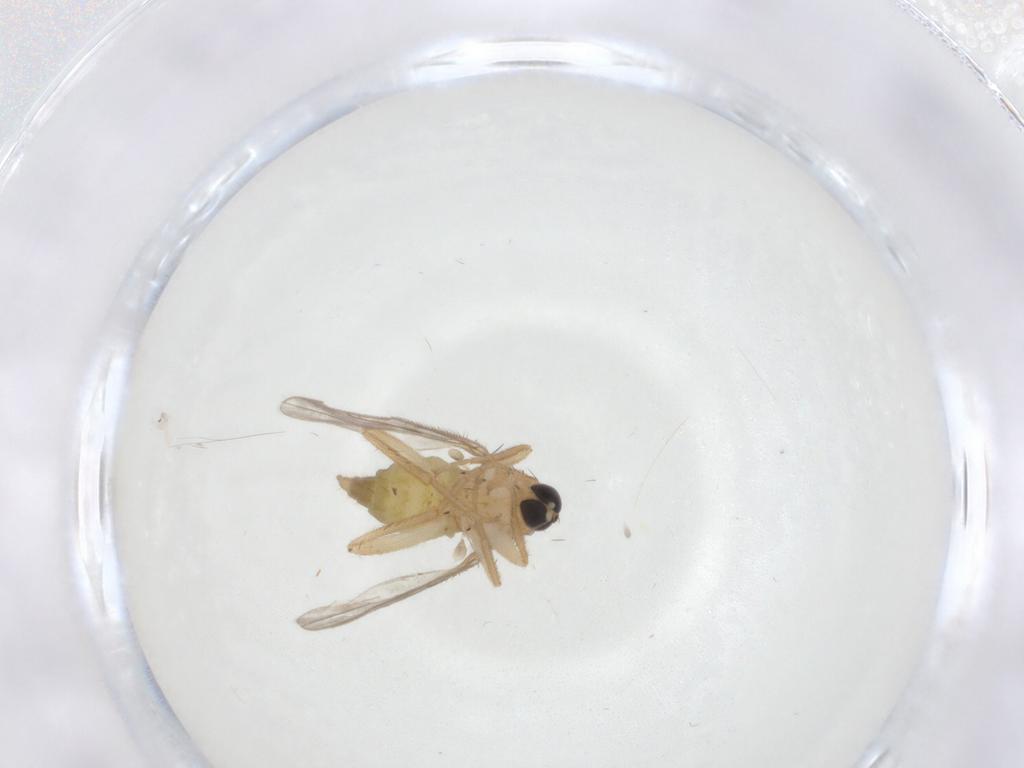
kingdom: Animalia
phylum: Arthropoda
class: Insecta
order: Diptera
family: Hybotidae
